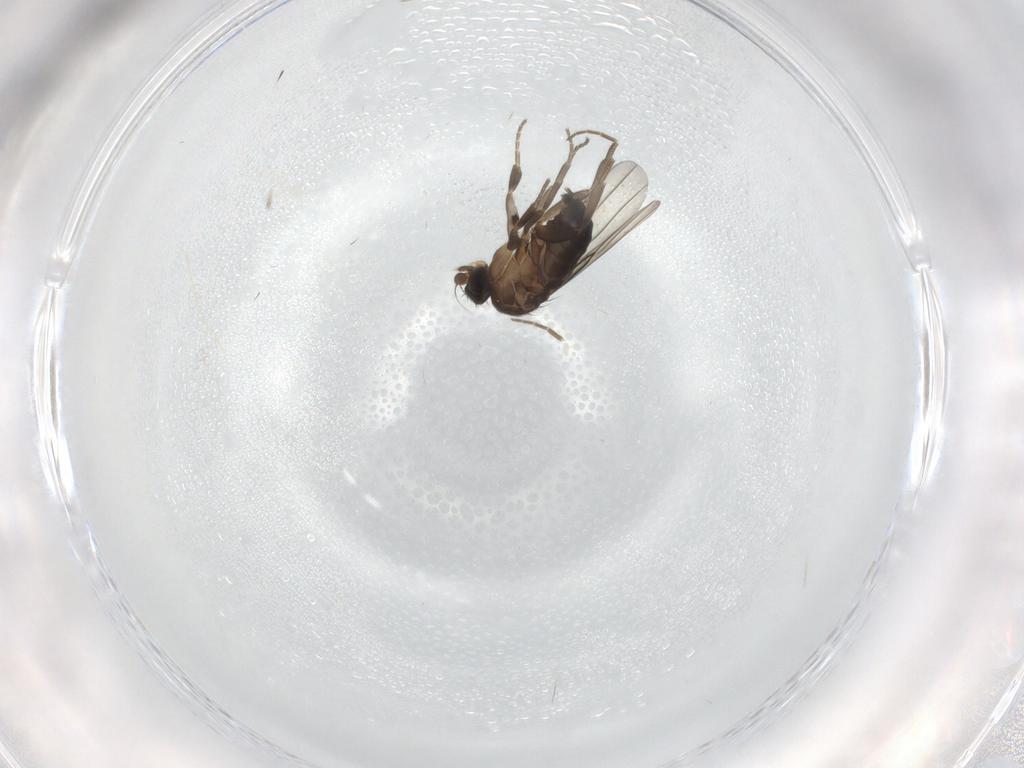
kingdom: Animalia
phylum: Arthropoda
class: Insecta
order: Diptera
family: Phoridae
